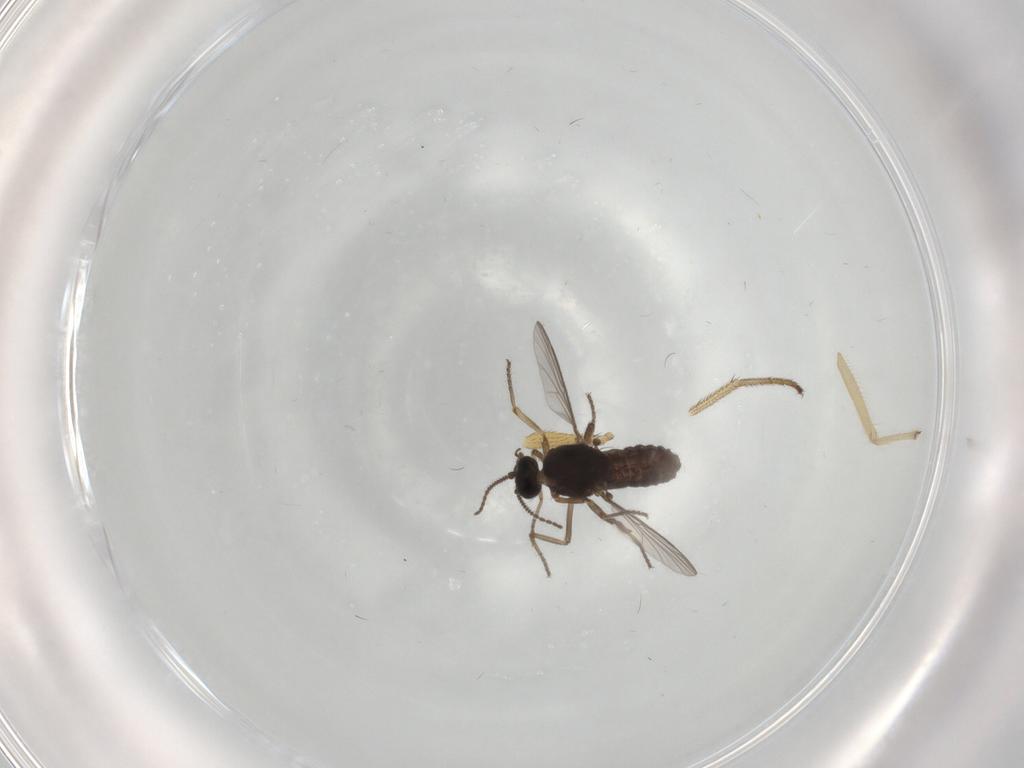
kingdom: Animalia
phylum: Arthropoda
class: Insecta
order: Diptera
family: Ceratopogonidae
